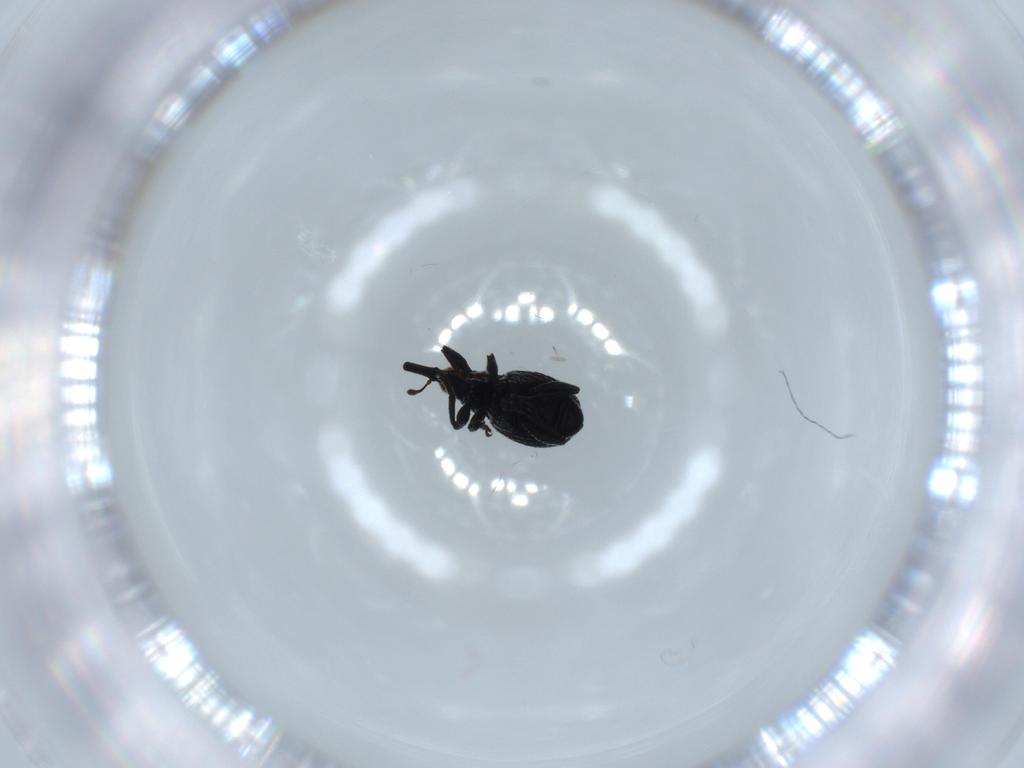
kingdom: Animalia
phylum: Arthropoda
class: Insecta
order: Coleoptera
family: Brentidae
